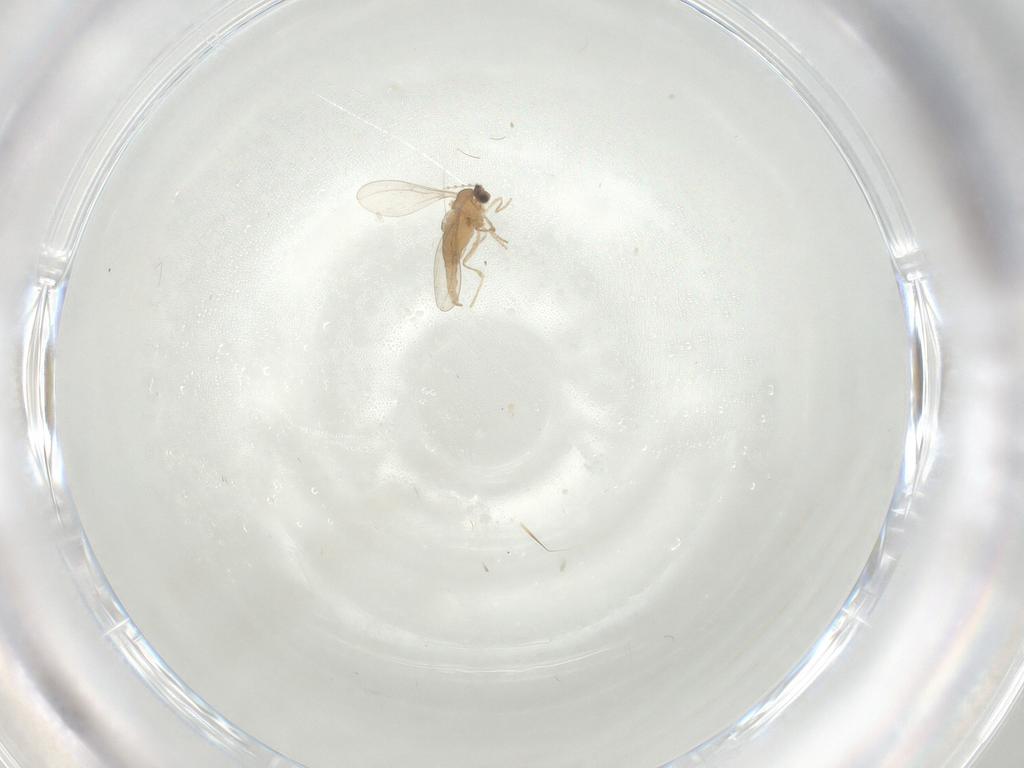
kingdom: Animalia
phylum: Arthropoda
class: Insecta
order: Diptera
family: Cecidomyiidae
